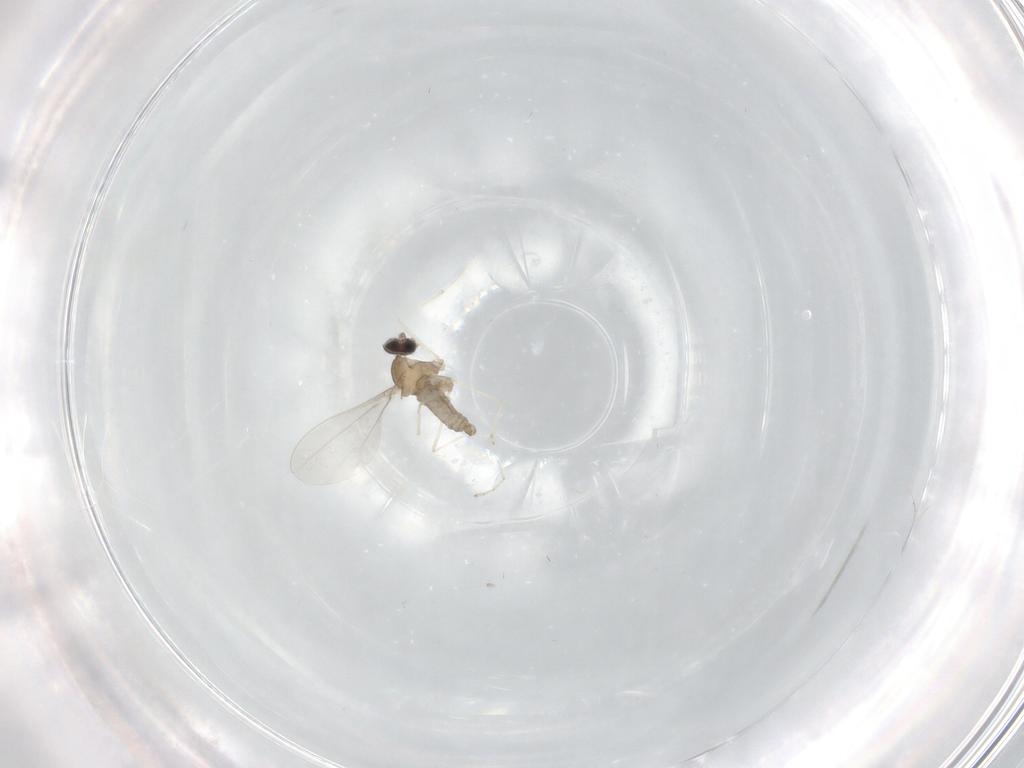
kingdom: Animalia
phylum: Arthropoda
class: Insecta
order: Diptera
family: Cecidomyiidae
